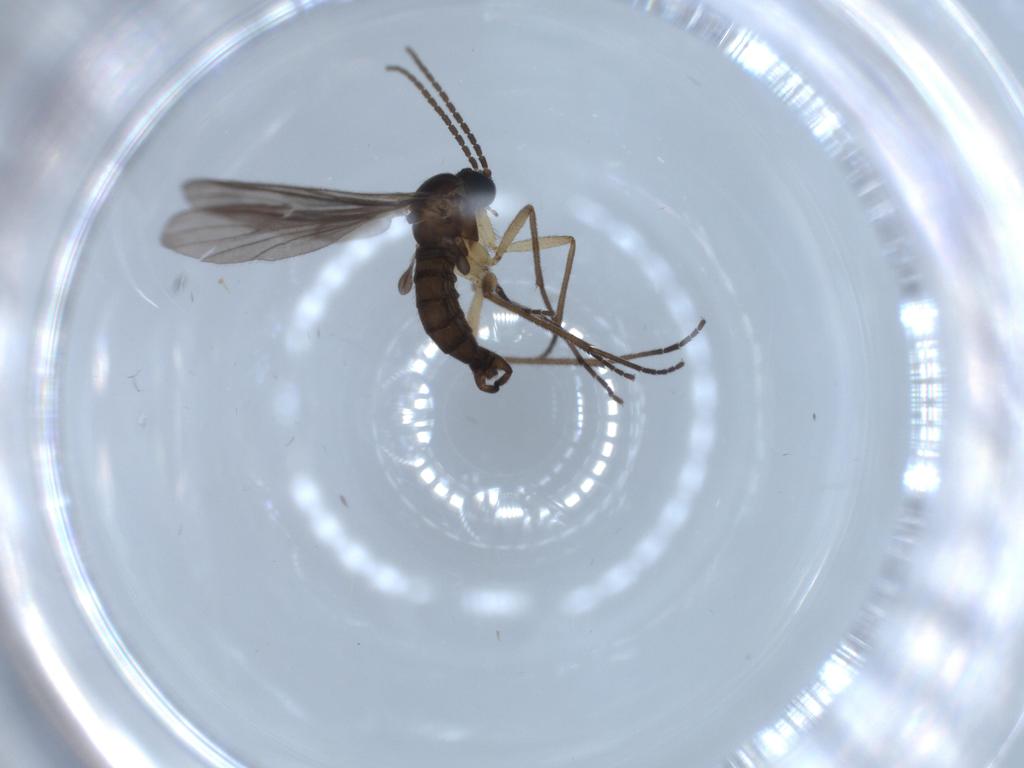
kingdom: Animalia
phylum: Arthropoda
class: Insecta
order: Diptera
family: Sciaridae
